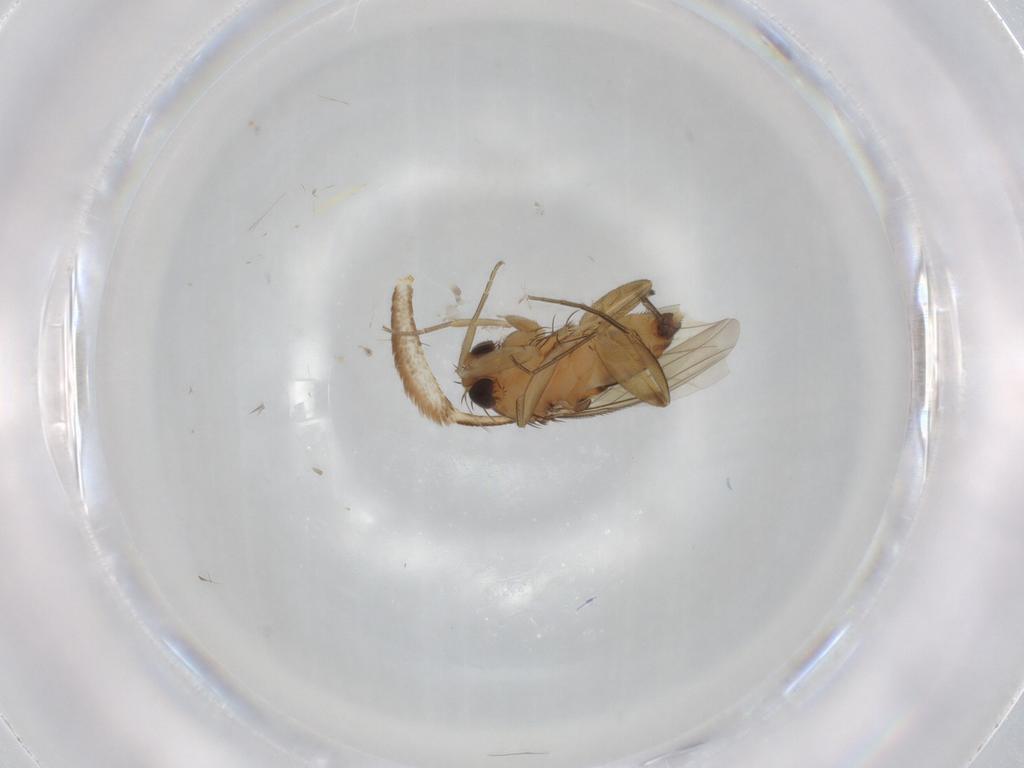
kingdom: Animalia
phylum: Arthropoda
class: Insecta
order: Diptera
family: Phoridae
